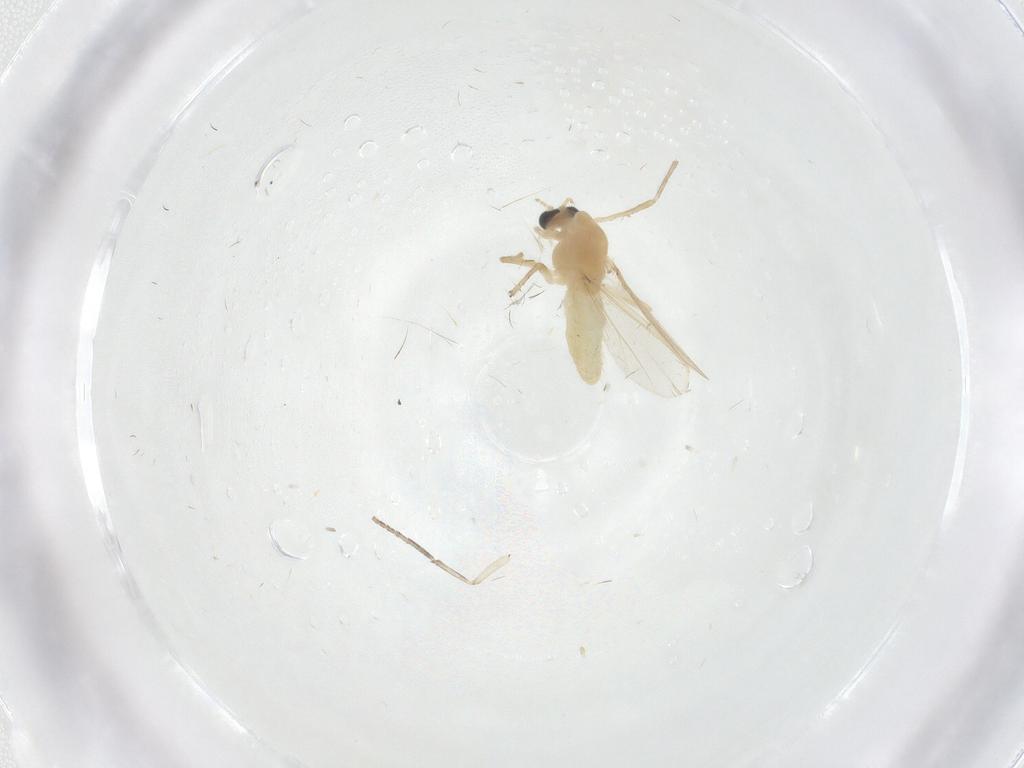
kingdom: Animalia
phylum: Arthropoda
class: Insecta
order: Diptera
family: Chironomidae
